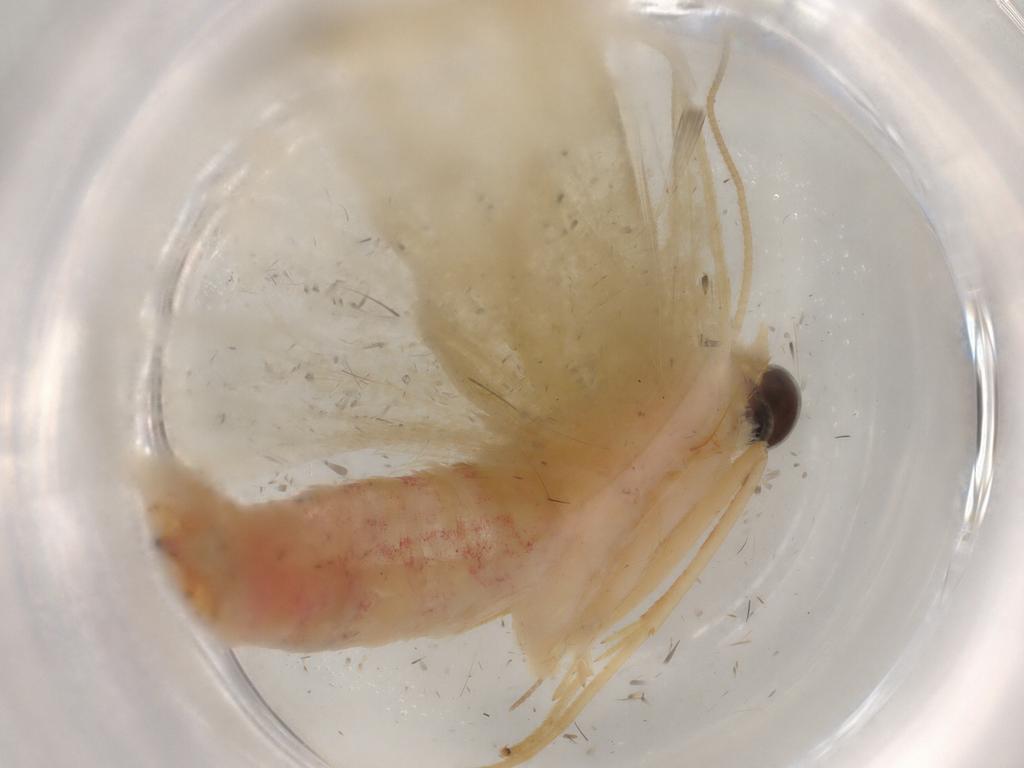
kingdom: Animalia
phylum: Arthropoda
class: Insecta
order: Lepidoptera
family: Geometridae
